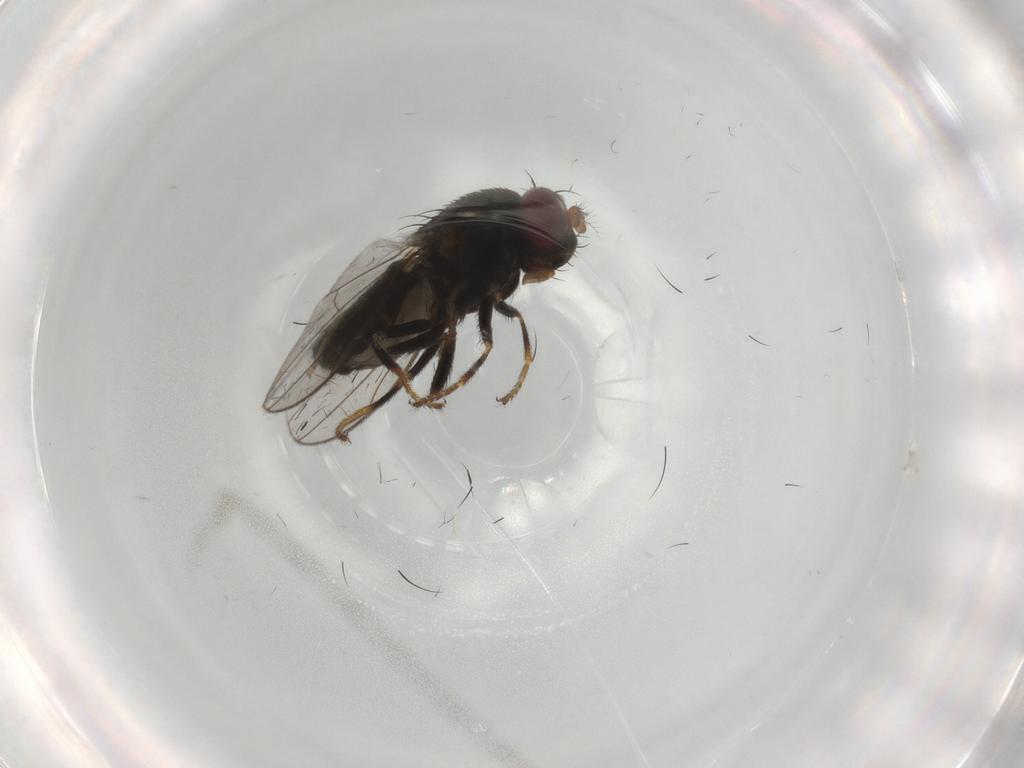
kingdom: Animalia
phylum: Arthropoda
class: Insecta
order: Diptera
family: Ceratopogonidae
